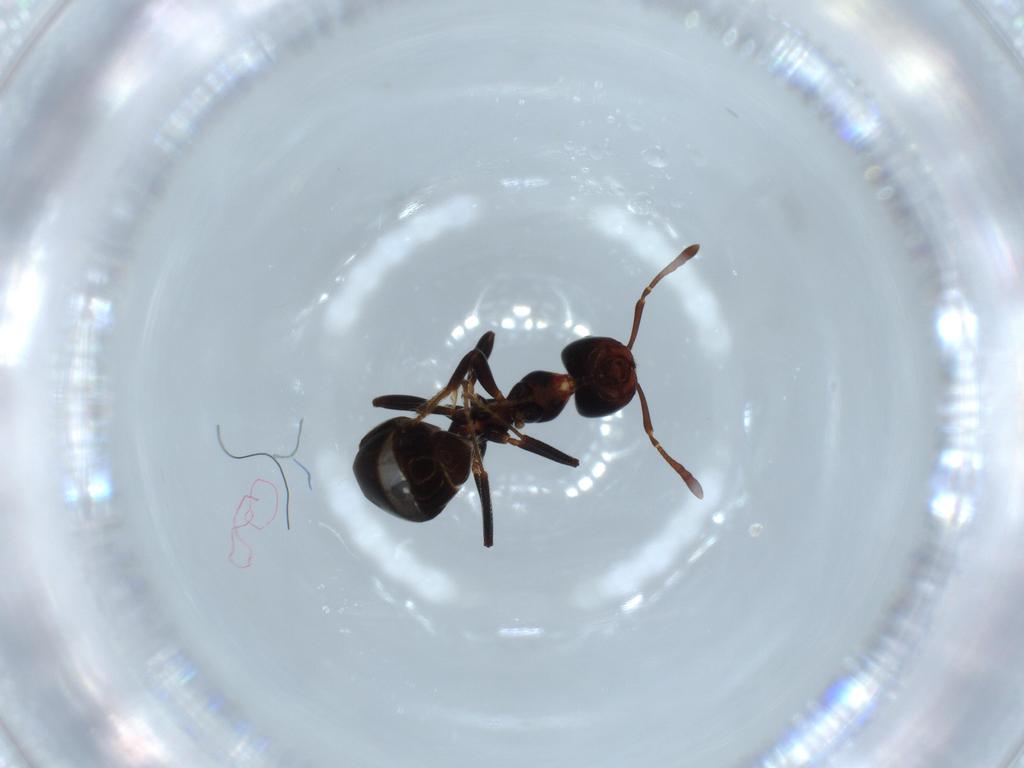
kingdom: Animalia
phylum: Arthropoda
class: Insecta
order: Hymenoptera
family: Formicidae
